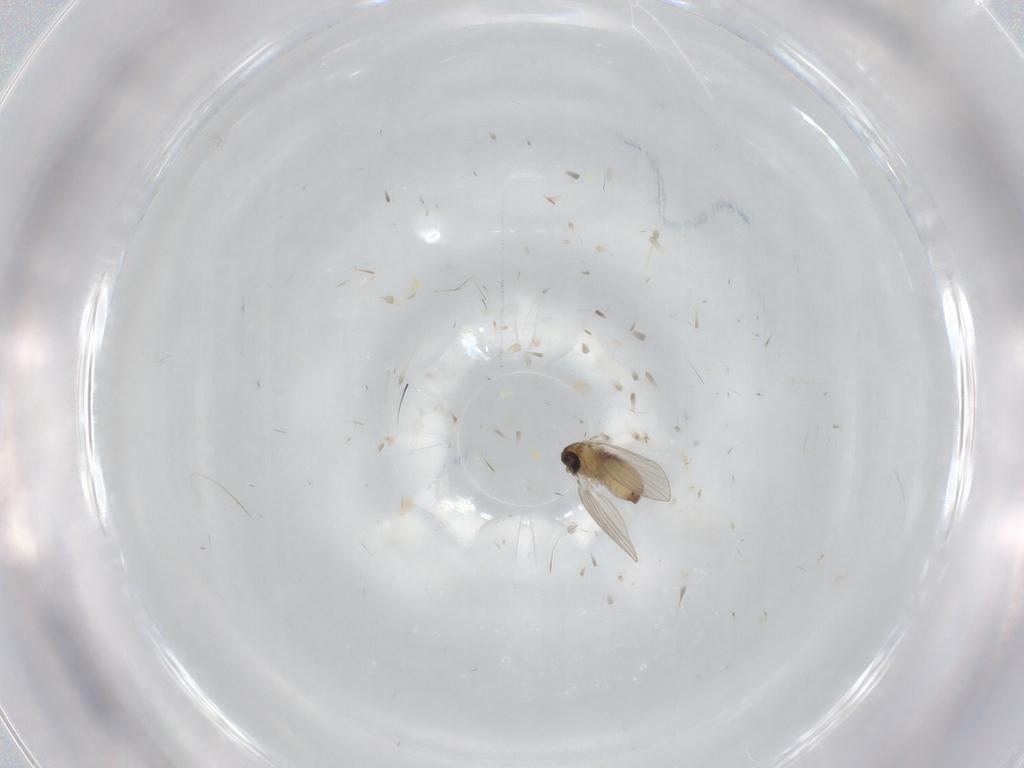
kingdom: Animalia
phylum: Arthropoda
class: Insecta
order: Diptera
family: Psychodidae
